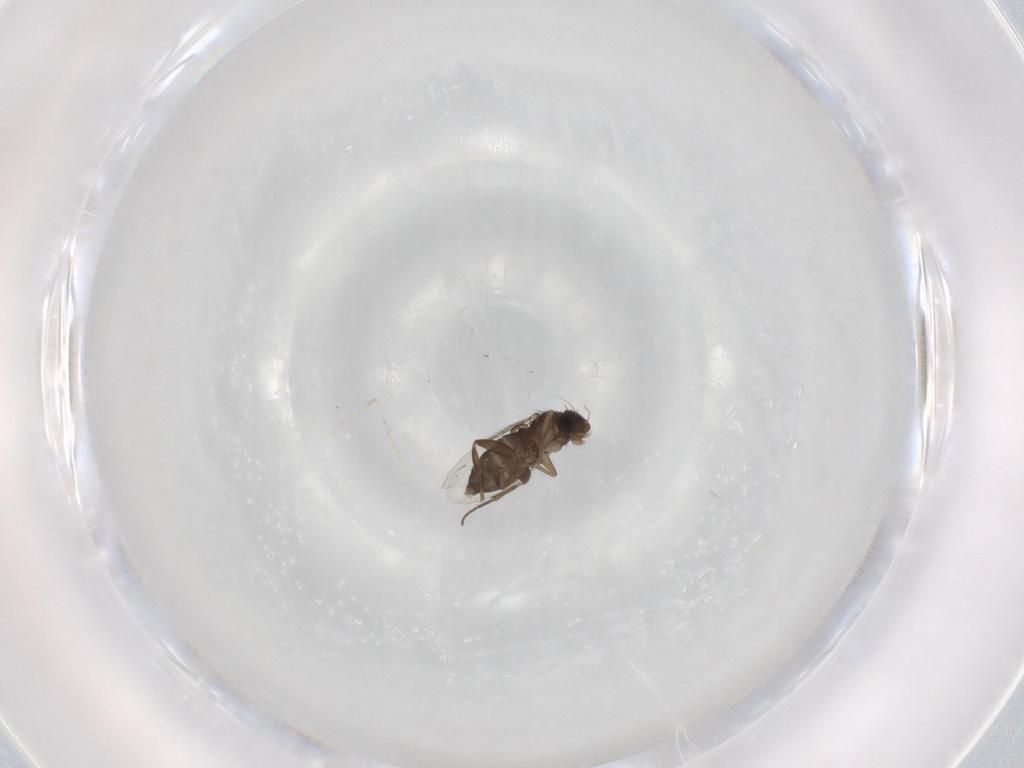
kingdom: Animalia
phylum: Arthropoda
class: Insecta
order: Diptera
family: Phoridae
